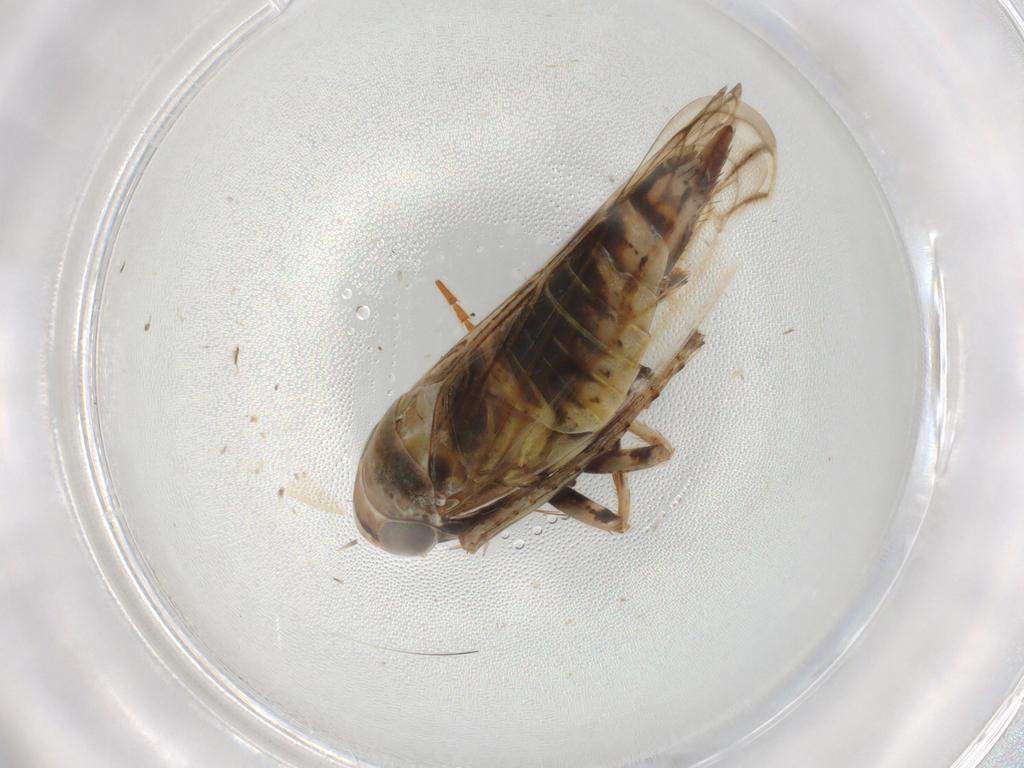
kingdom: Animalia
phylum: Arthropoda
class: Insecta
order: Hemiptera
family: Cicadellidae
